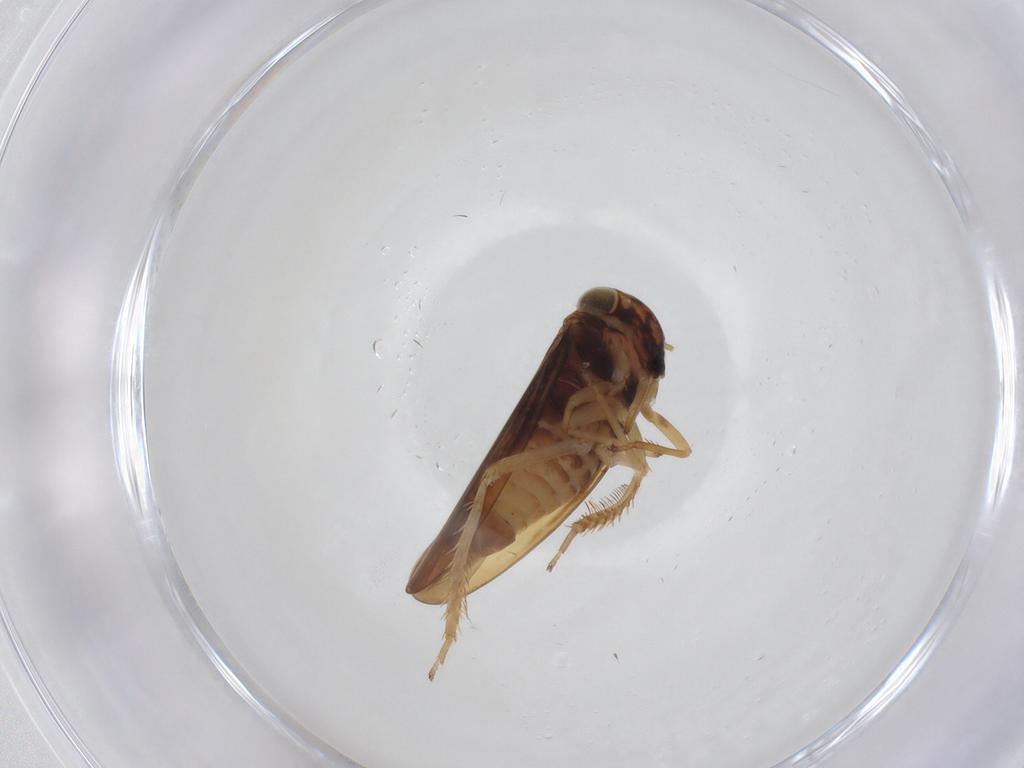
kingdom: Animalia
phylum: Arthropoda
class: Insecta
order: Hemiptera
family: Cicadellidae
